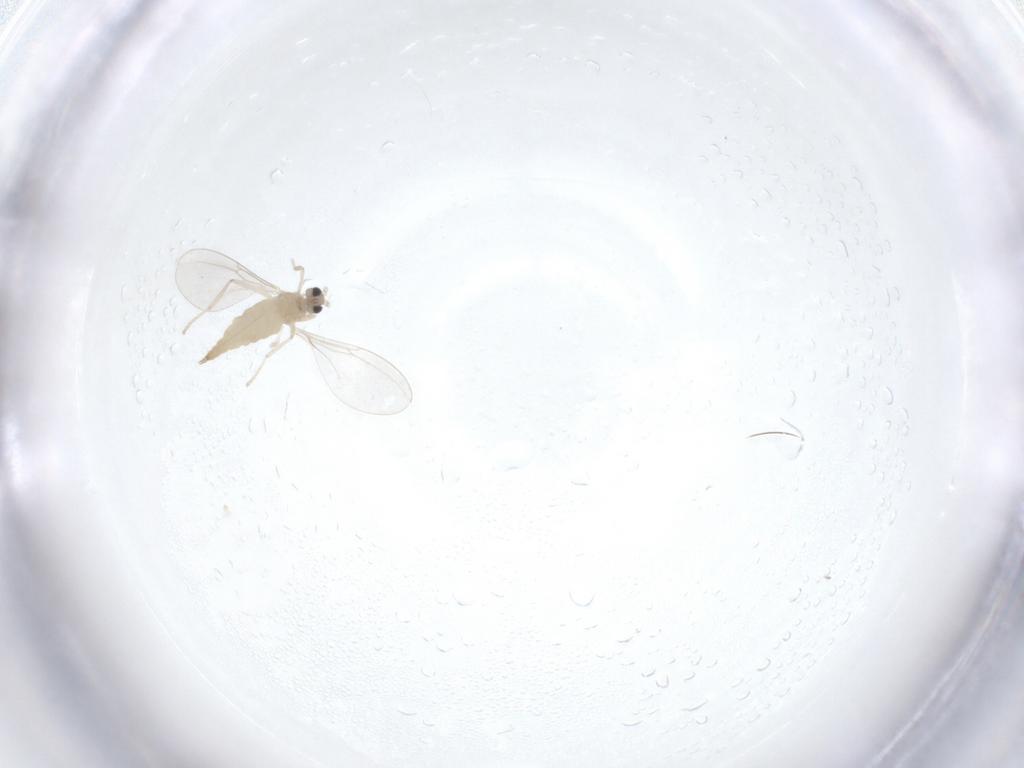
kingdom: Animalia
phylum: Arthropoda
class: Insecta
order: Diptera
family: Cecidomyiidae
